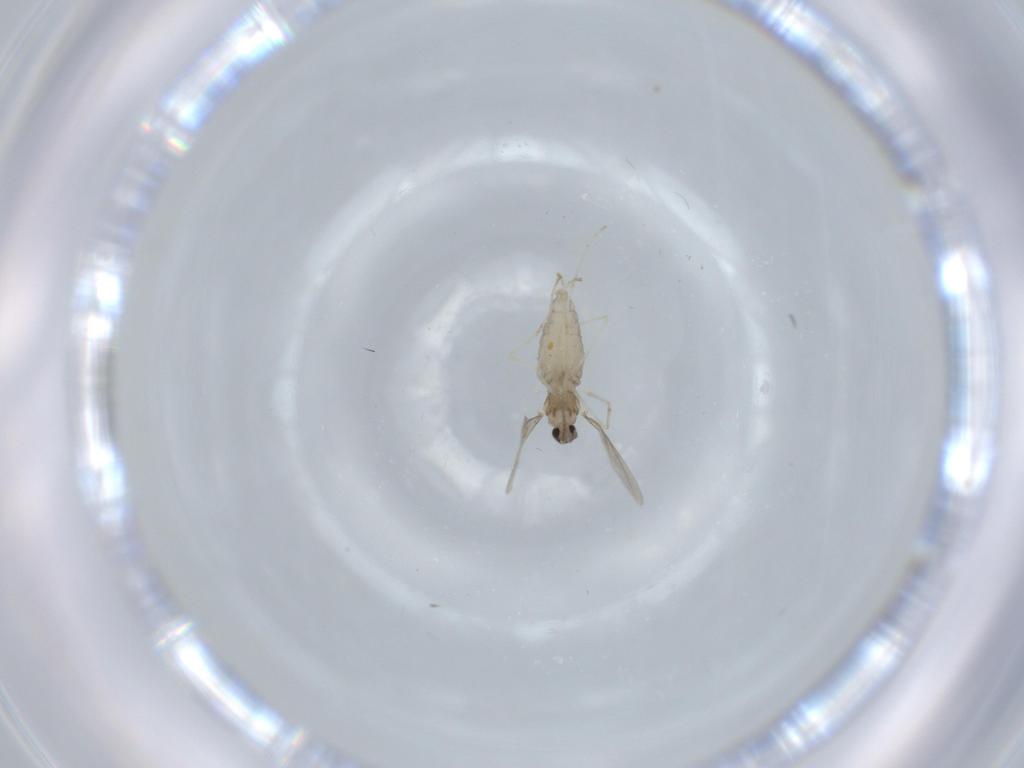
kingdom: Animalia
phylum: Arthropoda
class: Insecta
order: Diptera
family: Cecidomyiidae
